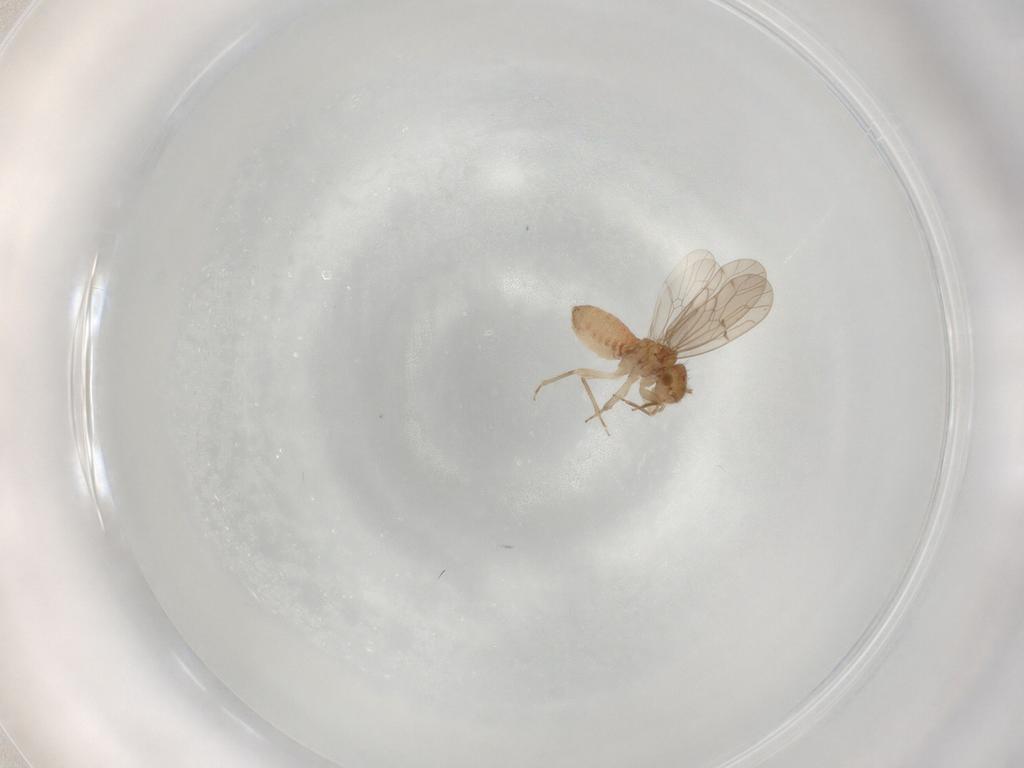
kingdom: Animalia
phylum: Arthropoda
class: Insecta
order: Psocodea
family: Ectopsocidae
